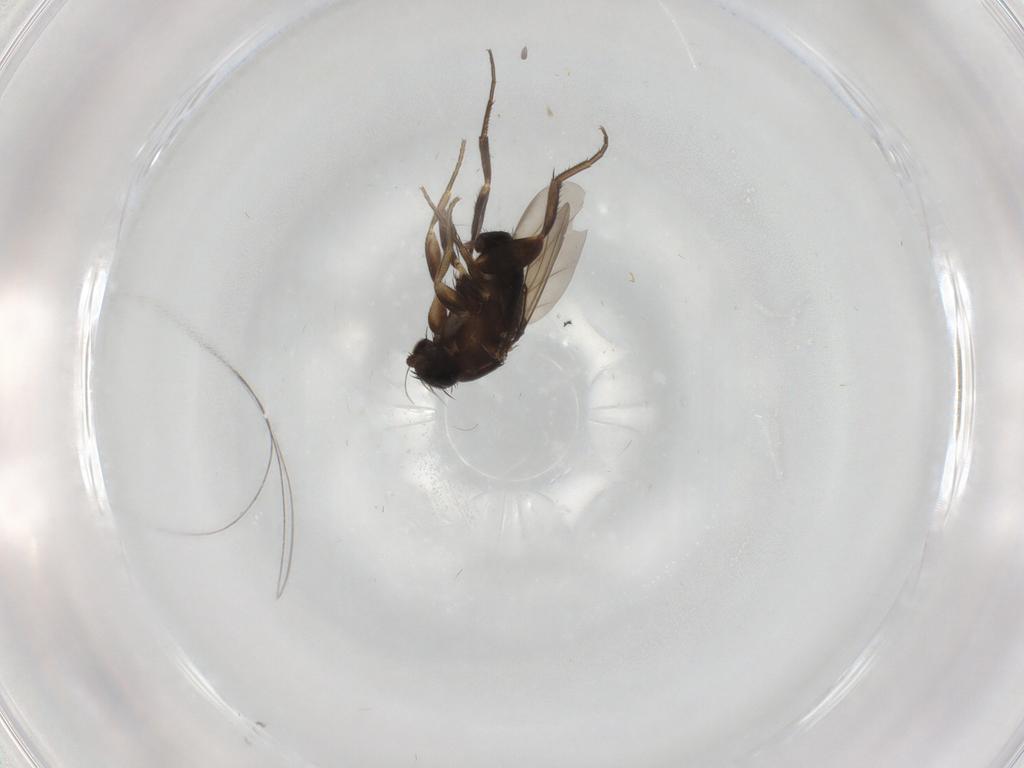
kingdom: Animalia
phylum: Arthropoda
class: Insecta
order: Diptera
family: Phoridae
